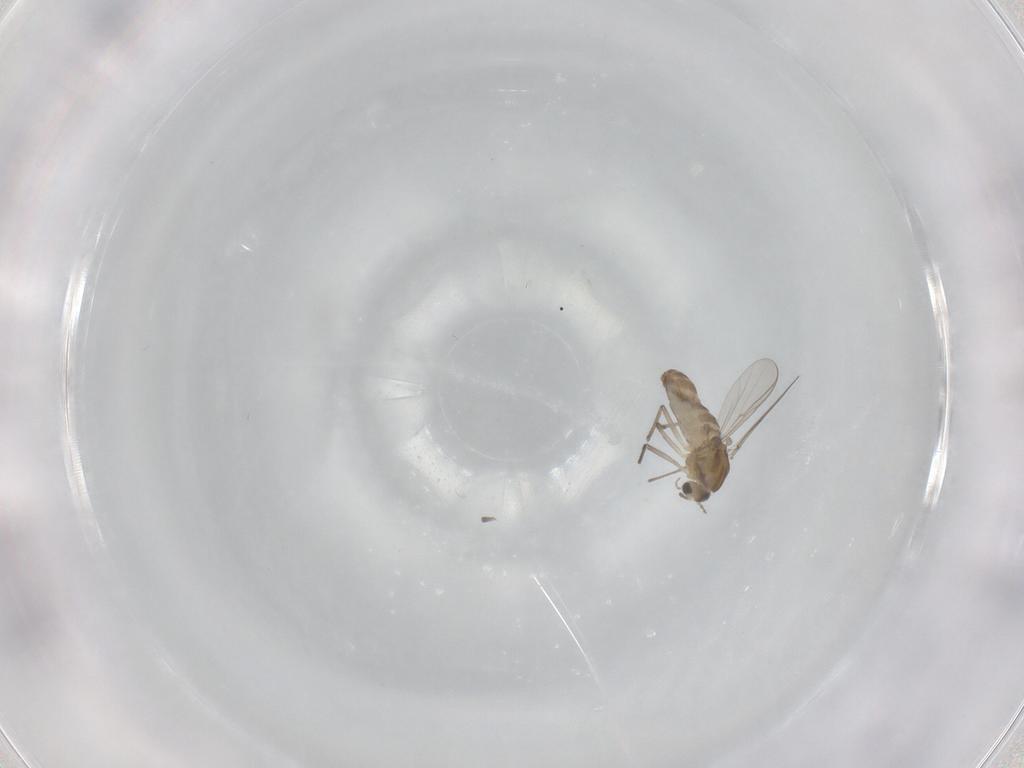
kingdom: Animalia
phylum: Arthropoda
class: Insecta
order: Diptera
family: Chironomidae
